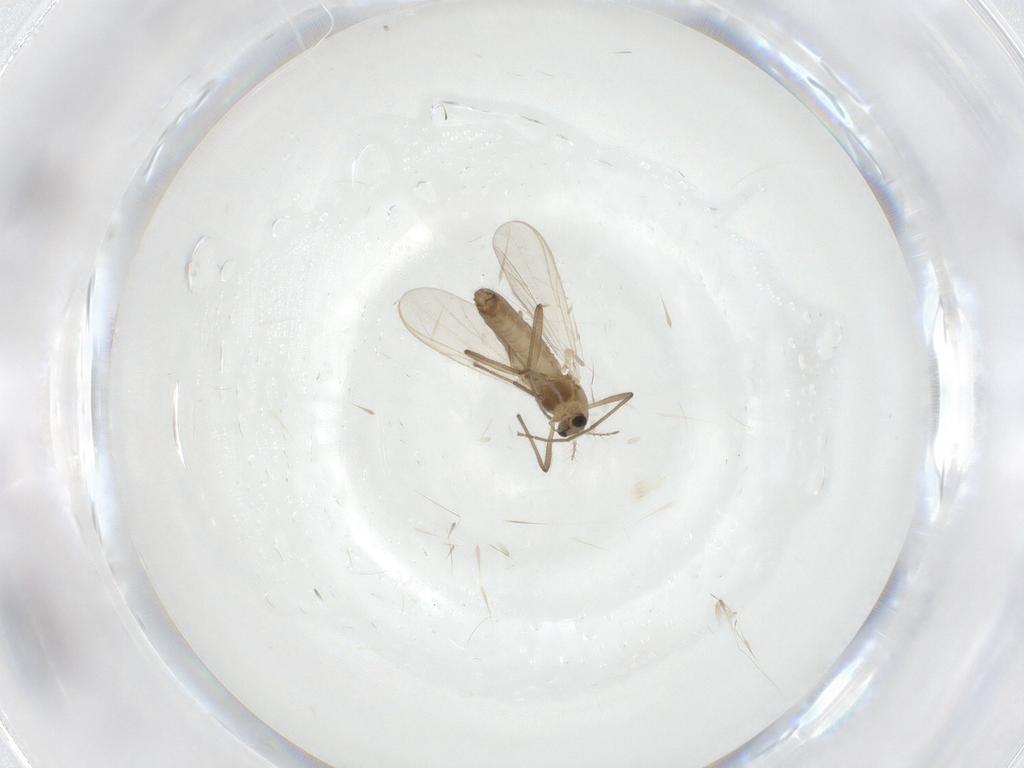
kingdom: Animalia
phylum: Arthropoda
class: Insecta
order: Diptera
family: Chironomidae
